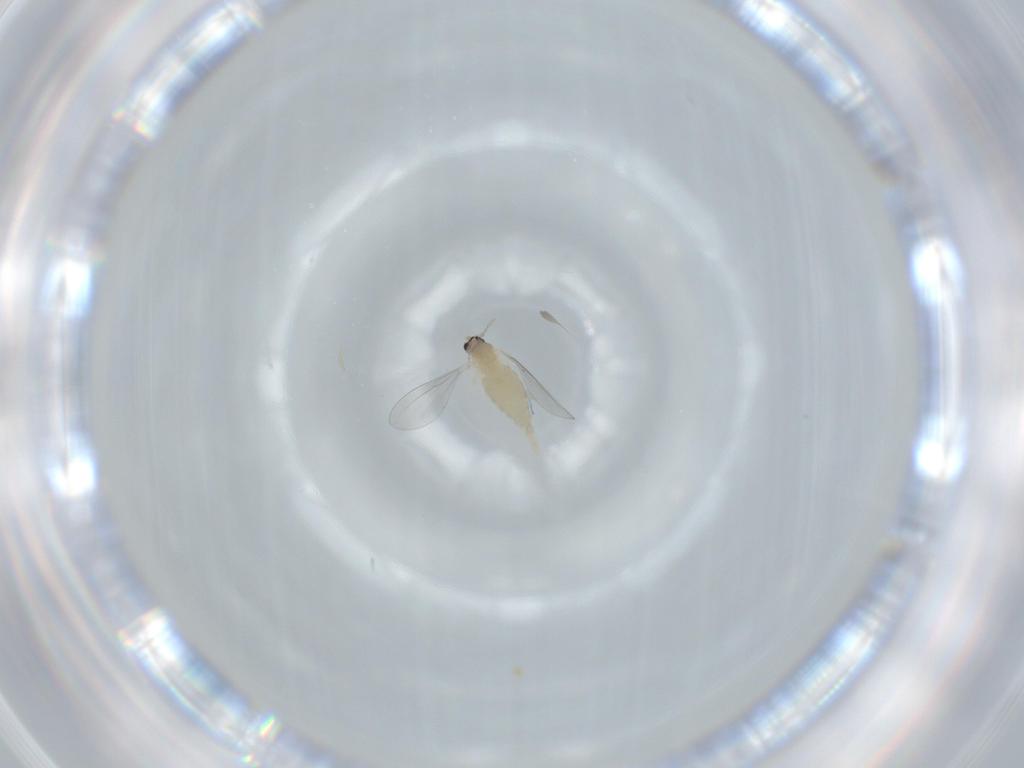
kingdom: Animalia
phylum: Arthropoda
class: Insecta
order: Diptera
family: Cecidomyiidae
